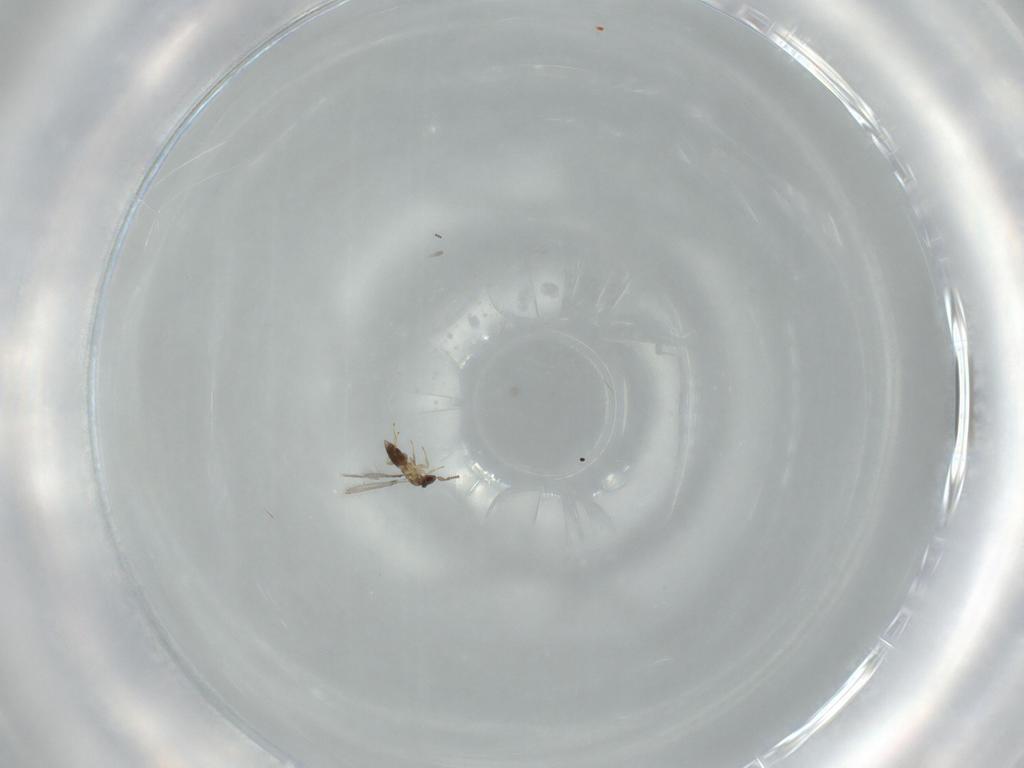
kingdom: Animalia
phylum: Arthropoda
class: Insecta
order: Hymenoptera
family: Mymaridae
